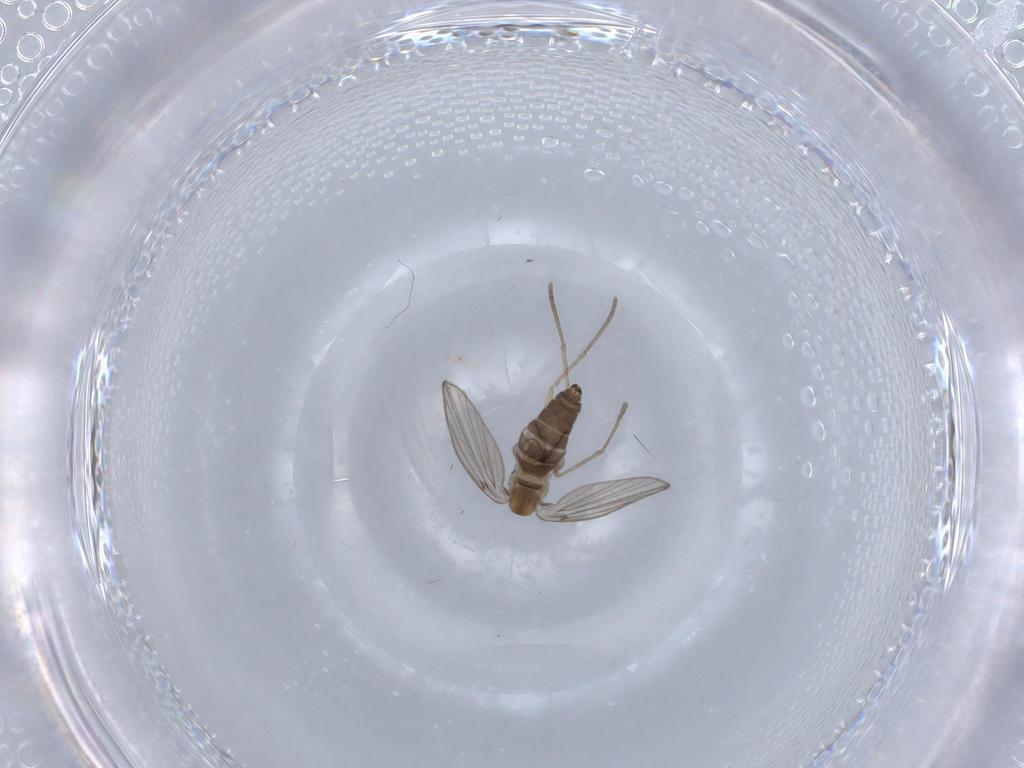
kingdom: Animalia
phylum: Arthropoda
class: Insecta
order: Diptera
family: Psychodidae
